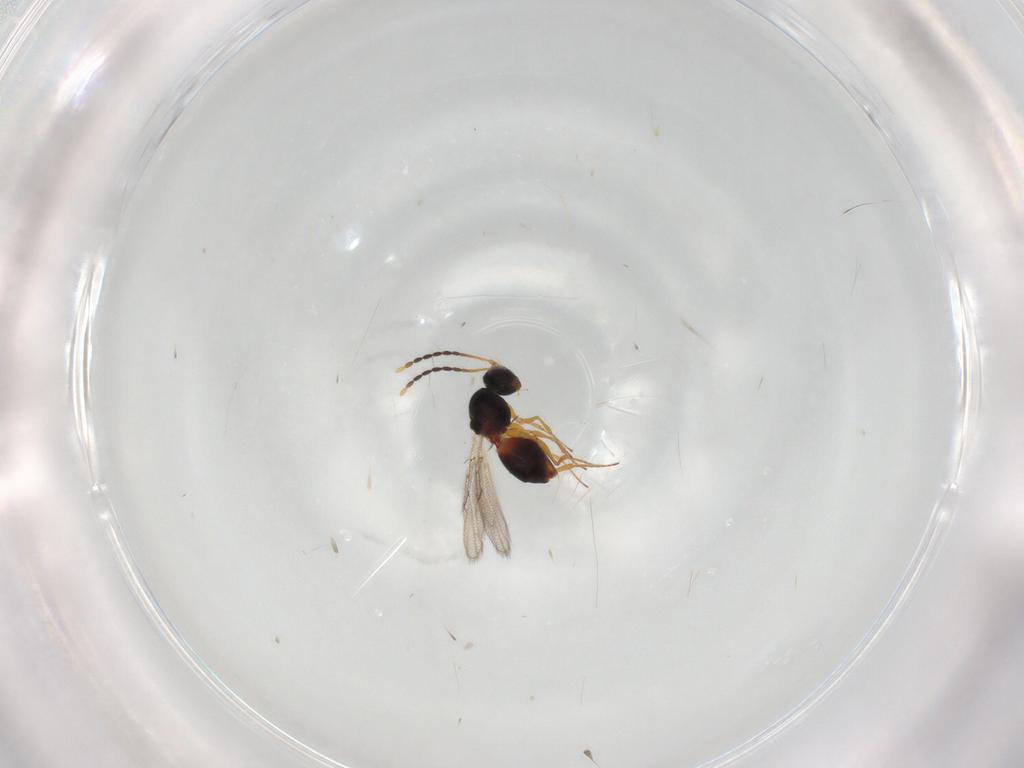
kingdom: Animalia
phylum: Arthropoda
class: Insecta
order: Hymenoptera
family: Figitidae
